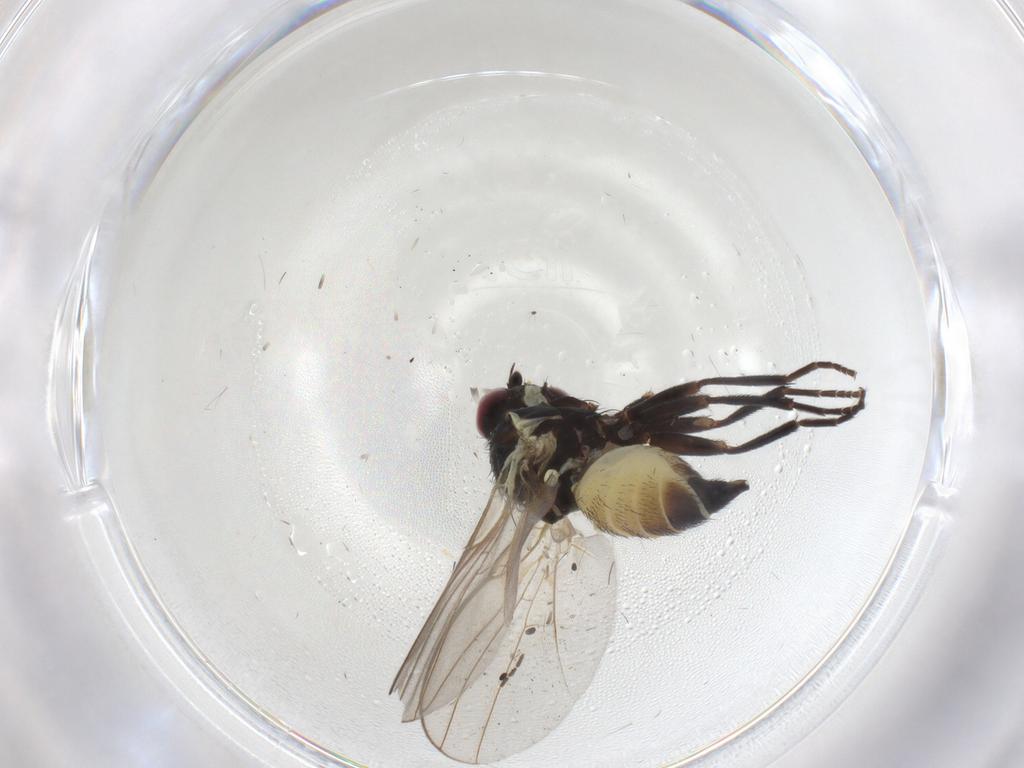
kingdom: Animalia
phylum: Arthropoda
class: Insecta
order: Diptera
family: Agromyzidae
